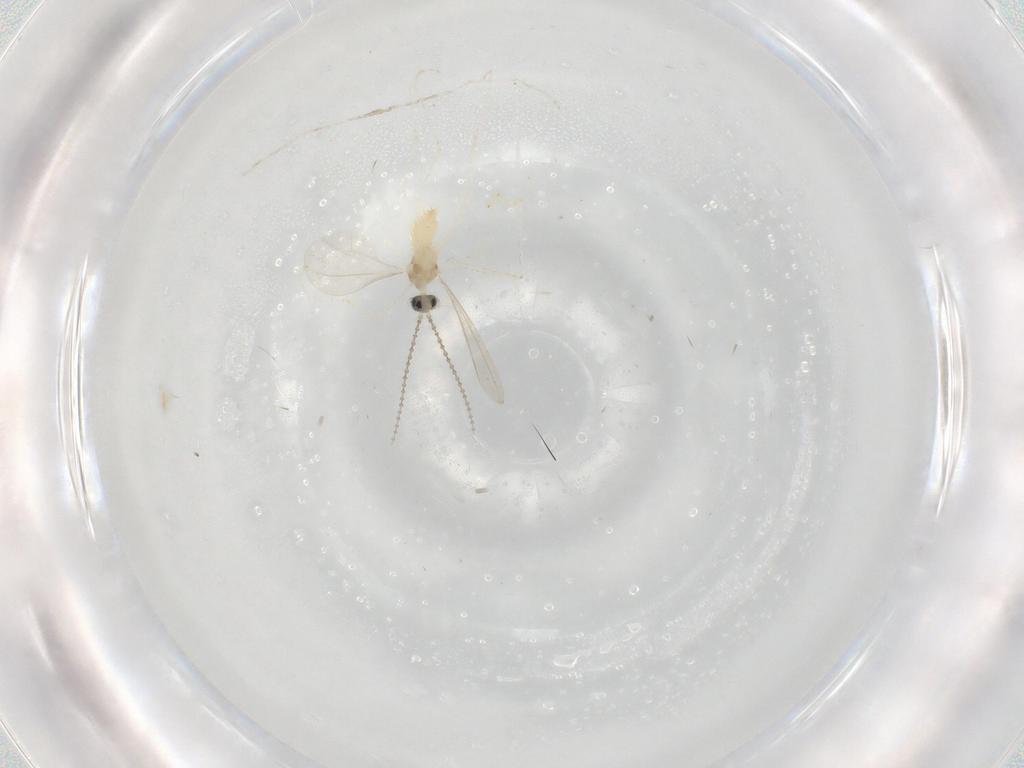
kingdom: Animalia
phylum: Arthropoda
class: Insecta
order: Diptera
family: Cecidomyiidae
